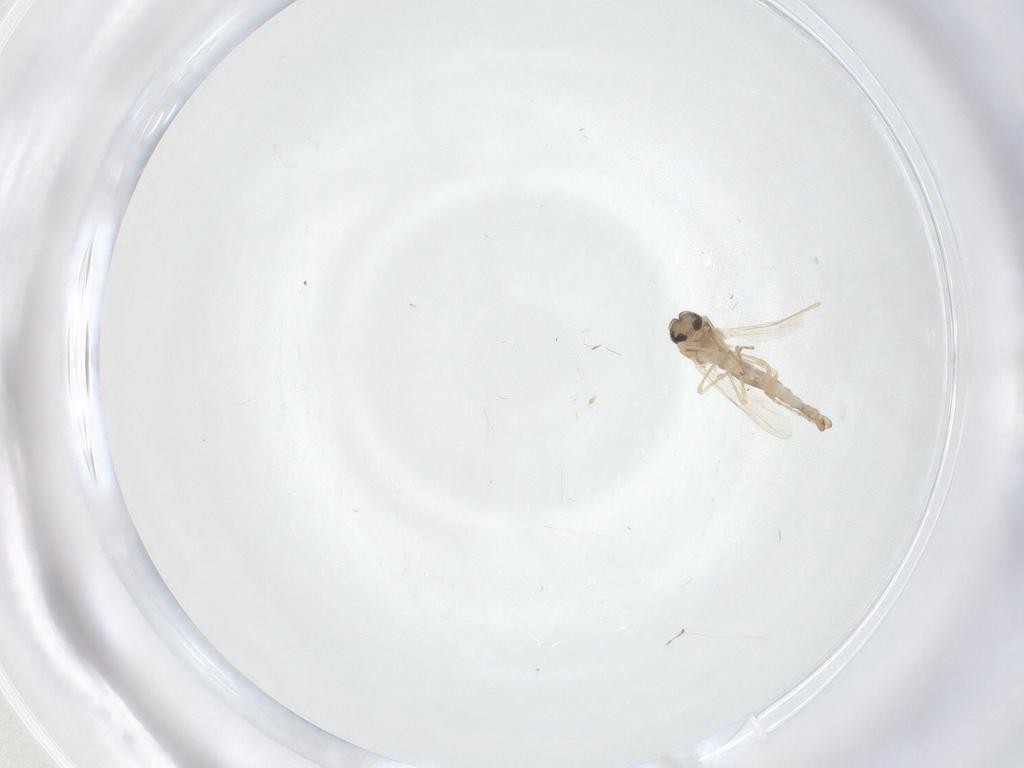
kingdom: Animalia
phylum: Arthropoda
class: Insecta
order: Diptera
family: Ceratopogonidae
